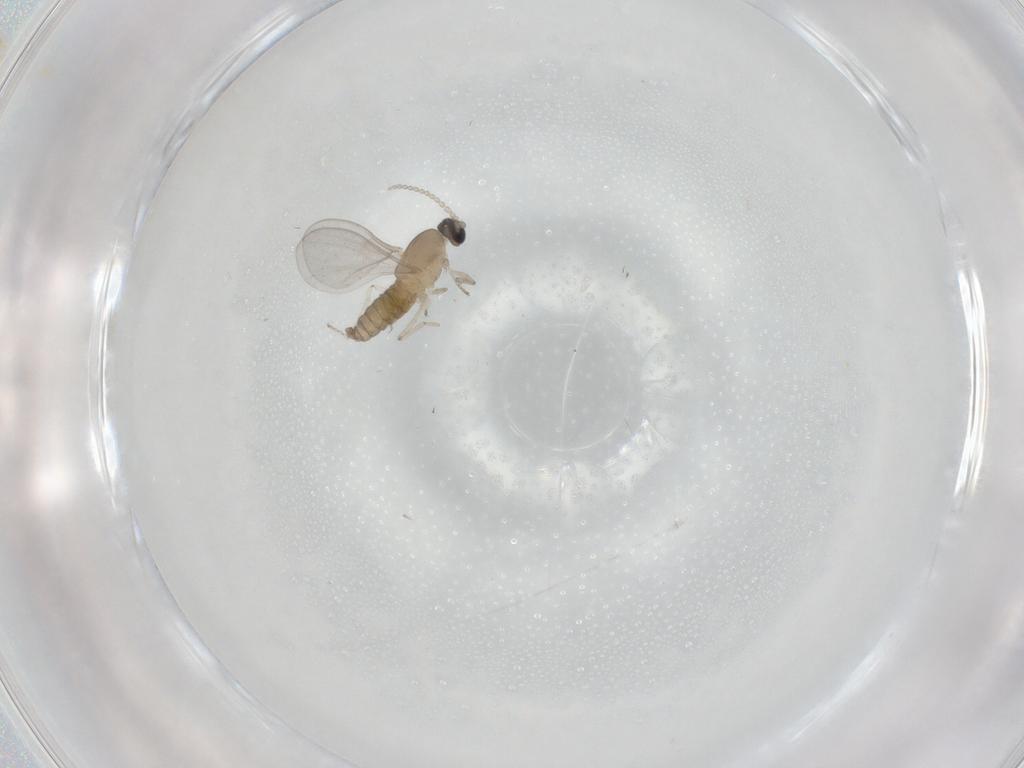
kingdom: Animalia
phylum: Arthropoda
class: Insecta
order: Diptera
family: Cecidomyiidae
